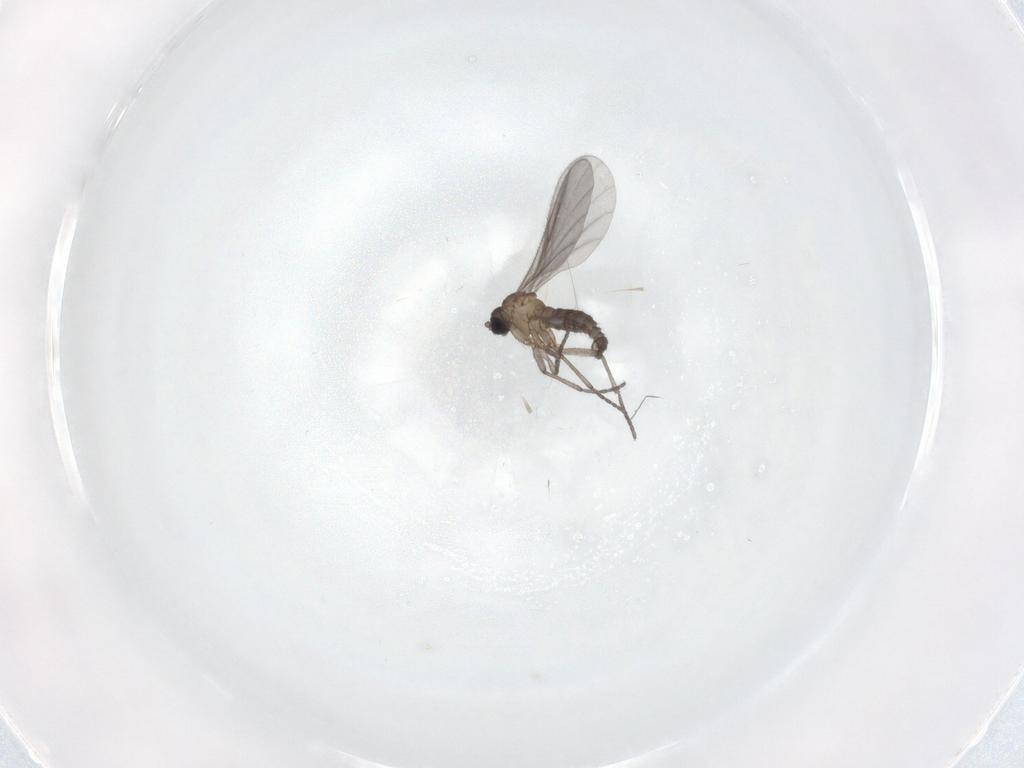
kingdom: Animalia
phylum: Arthropoda
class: Insecta
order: Diptera
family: Sciaridae
